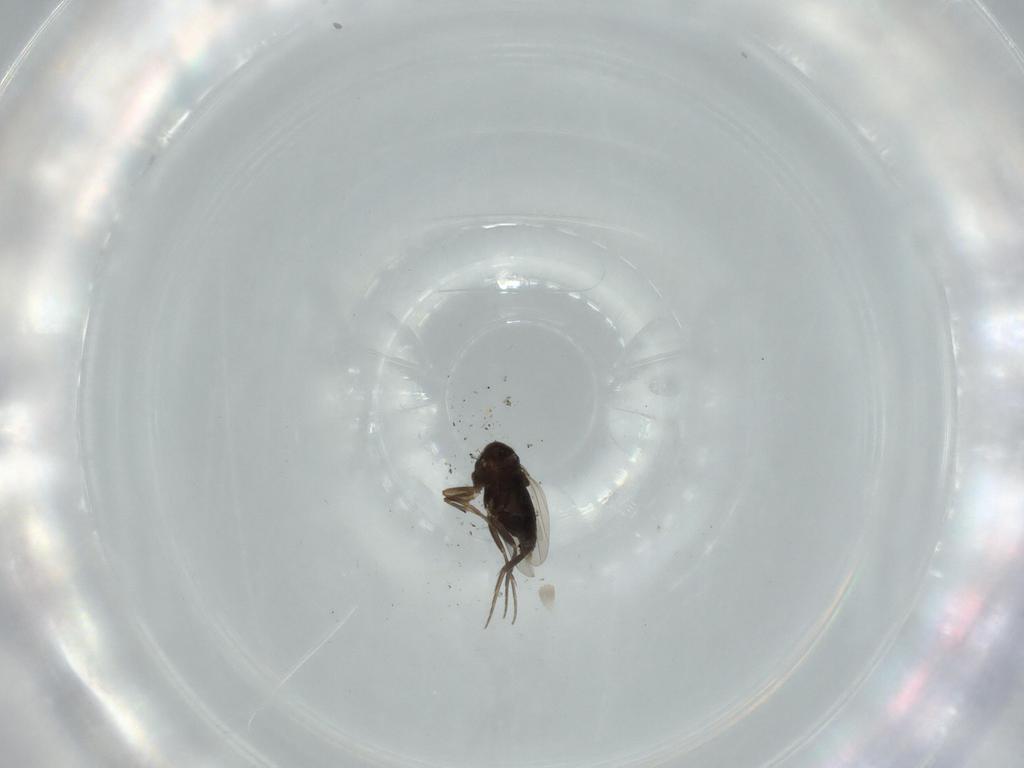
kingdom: Animalia
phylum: Arthropoda
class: Insecta
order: Diptera
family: Phoridae
